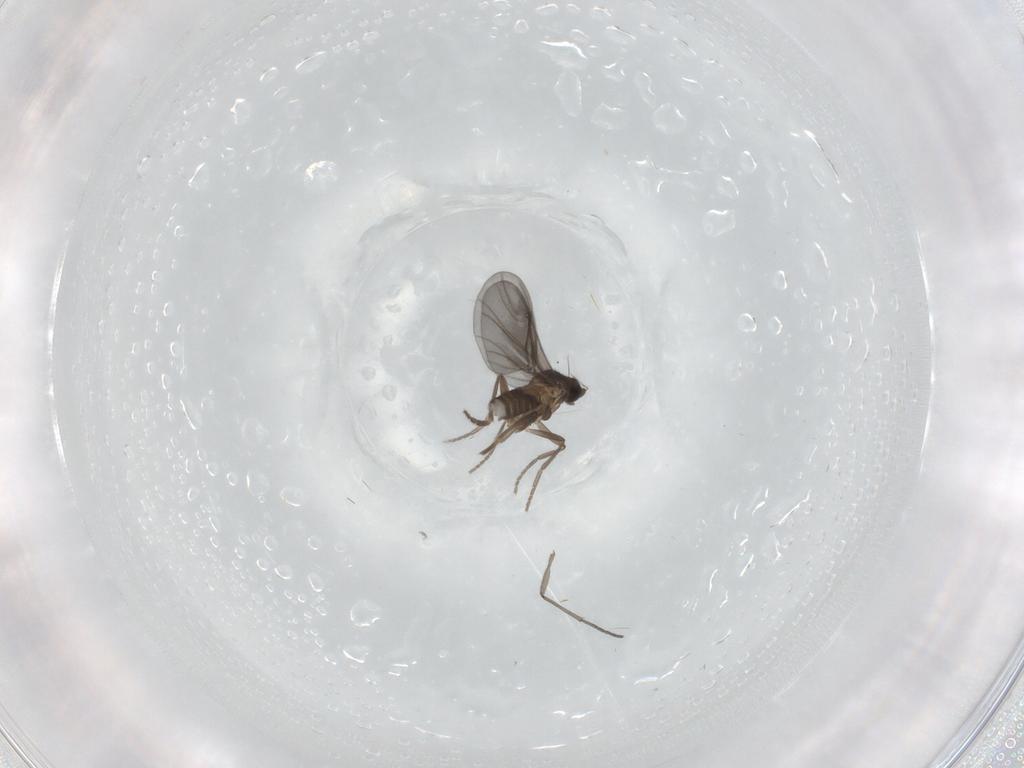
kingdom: Animalia
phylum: Arthropoda
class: Insecta
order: Diptera
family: Phoridae
